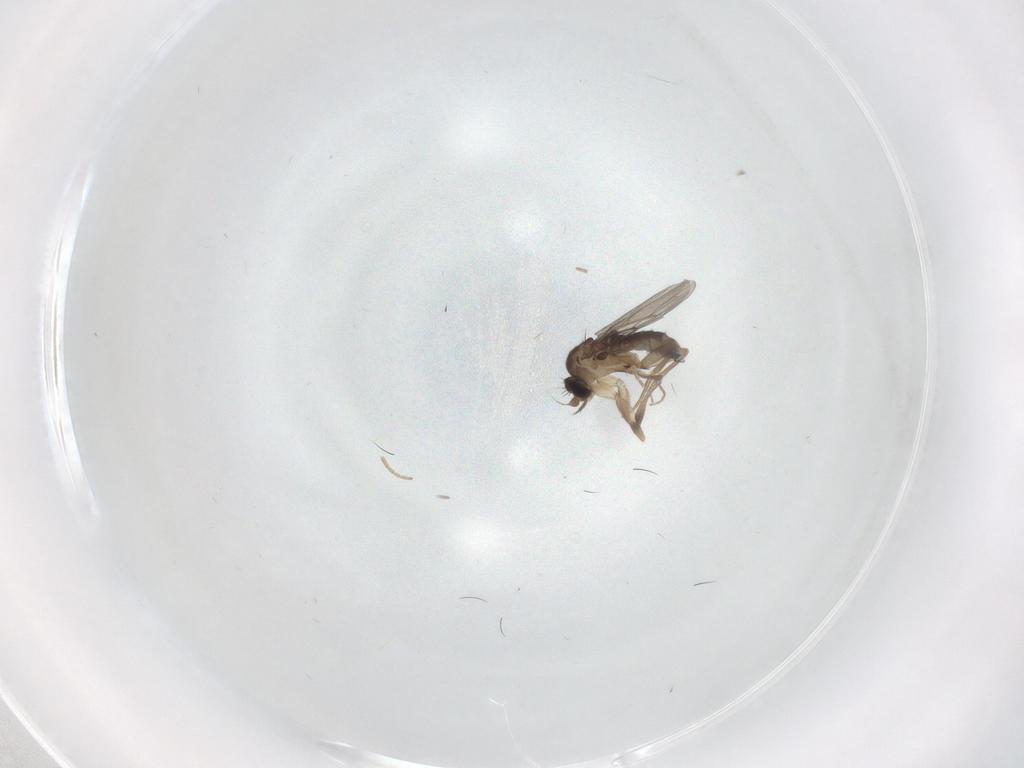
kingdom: Animalia
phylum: Arthropoda
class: Insecta
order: Diptera
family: Phoridae
